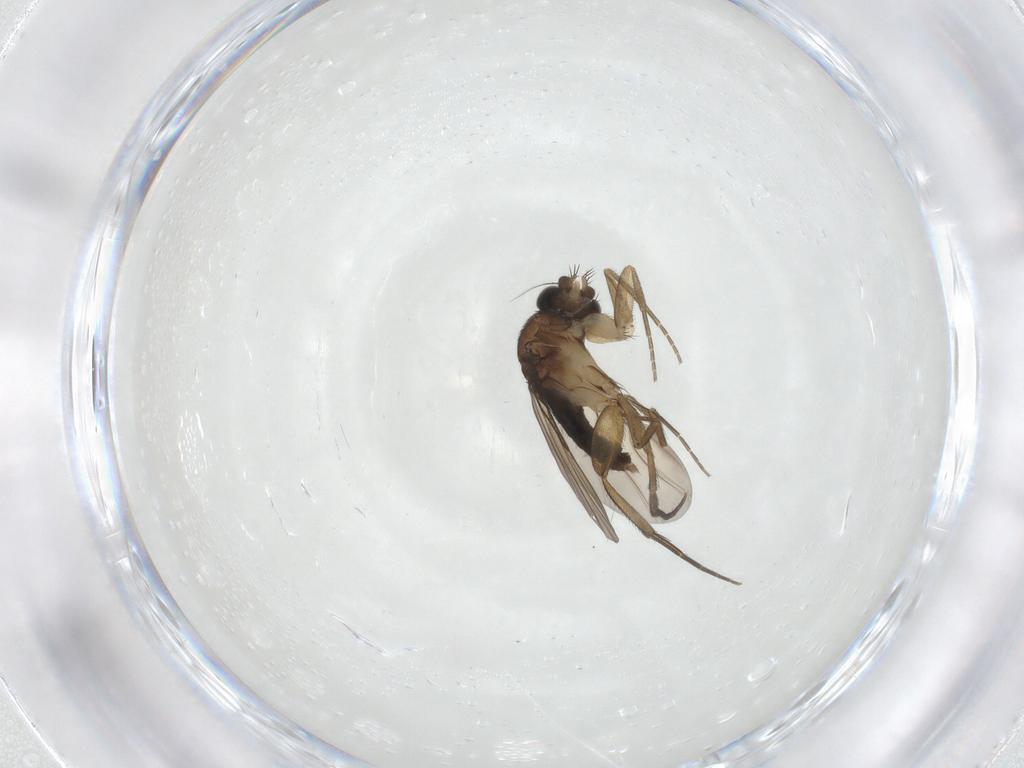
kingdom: Animalia
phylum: Arthropoda
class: Insecta
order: Diptera
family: Phoridae
